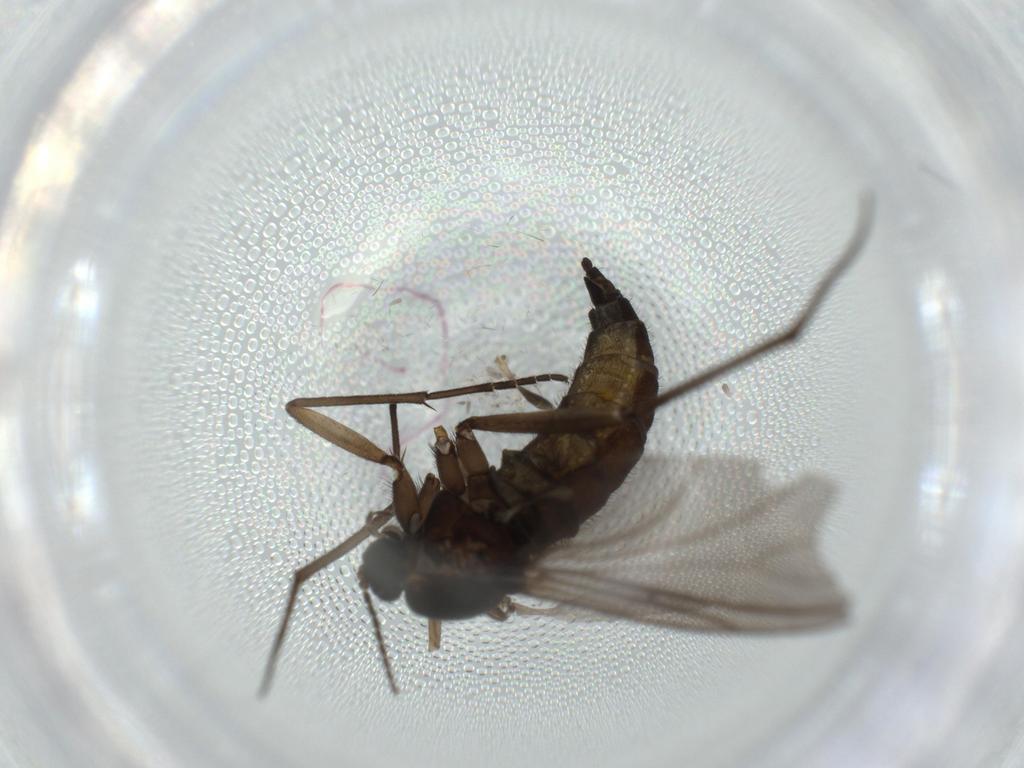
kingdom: Animalia
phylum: Arthropoda
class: Insecta
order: Diptera
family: Sciaridae
